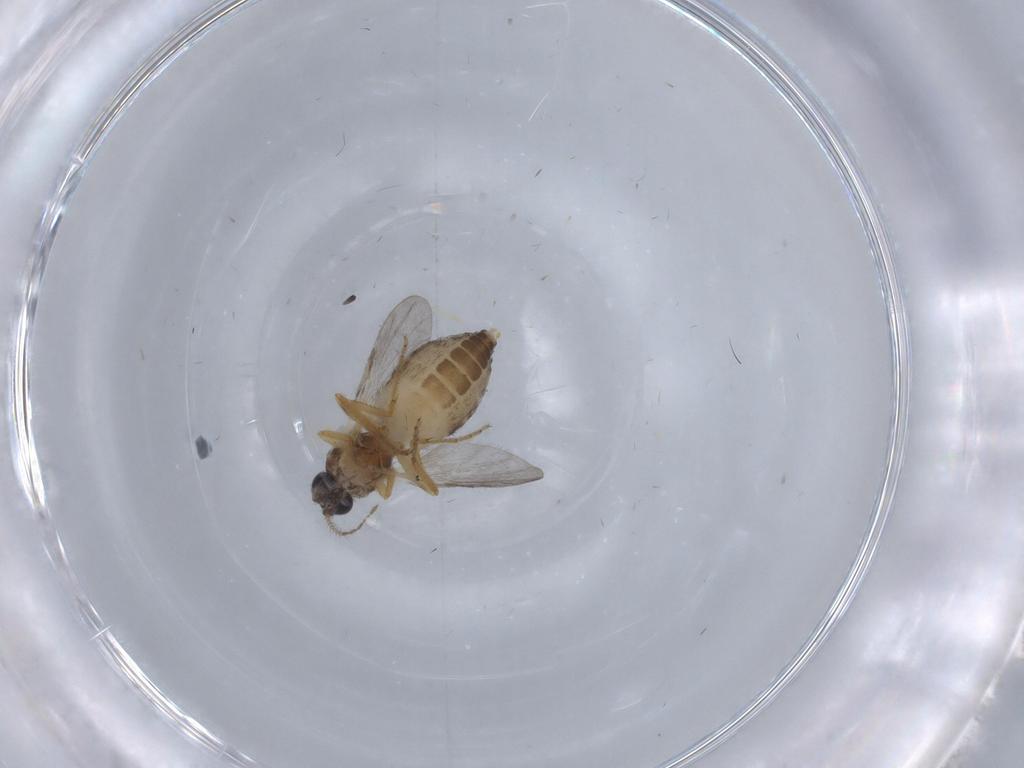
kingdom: Animalia
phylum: Arthropoda
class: Insecta
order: Diptera
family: Ceratopogonidae
